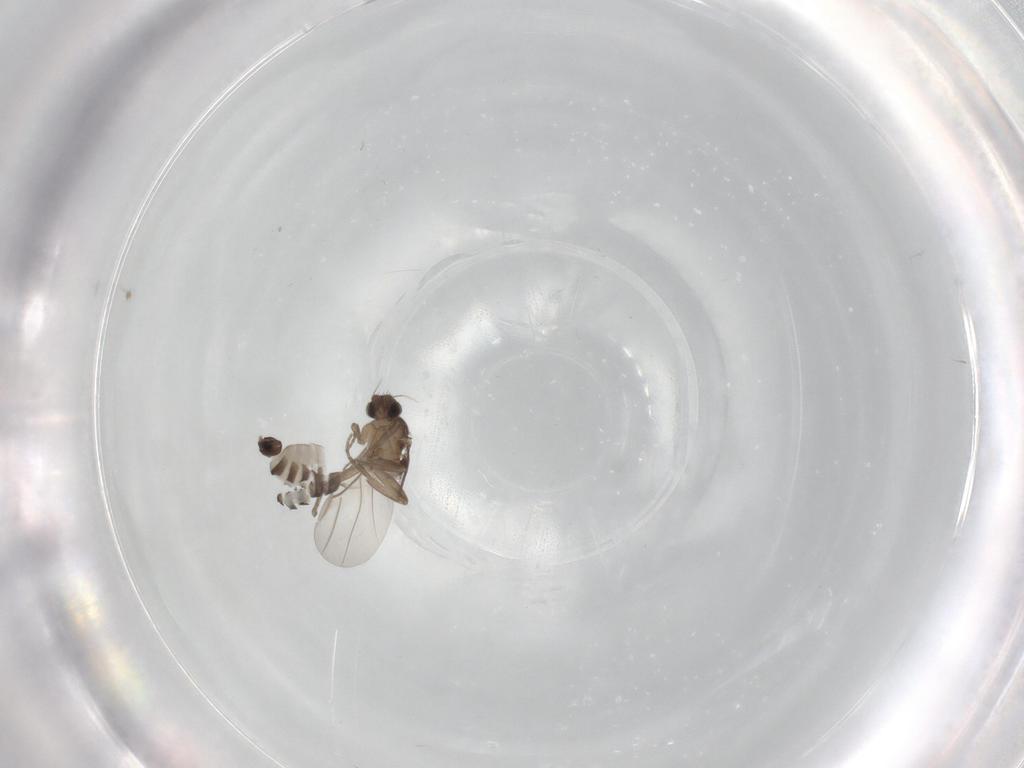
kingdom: Animalia
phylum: Arthropoda
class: Insecta
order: Diptera
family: Phoridae
